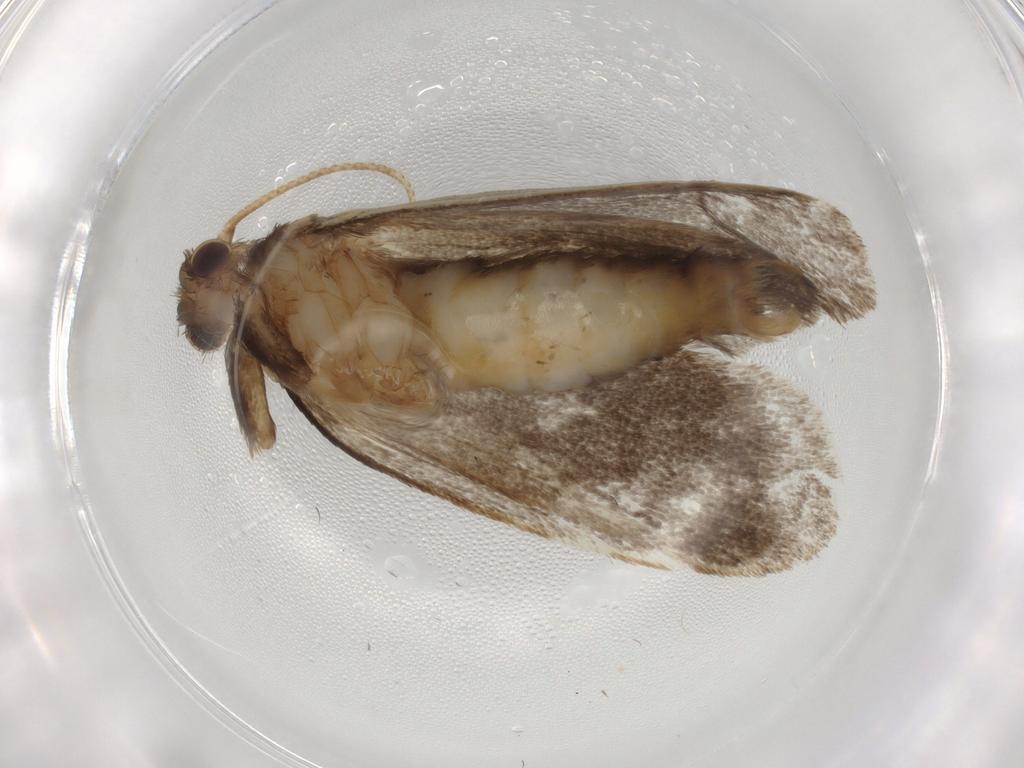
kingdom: Animalia
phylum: Arthropoda
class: Insecta
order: Lepidoptera
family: Tineidae
